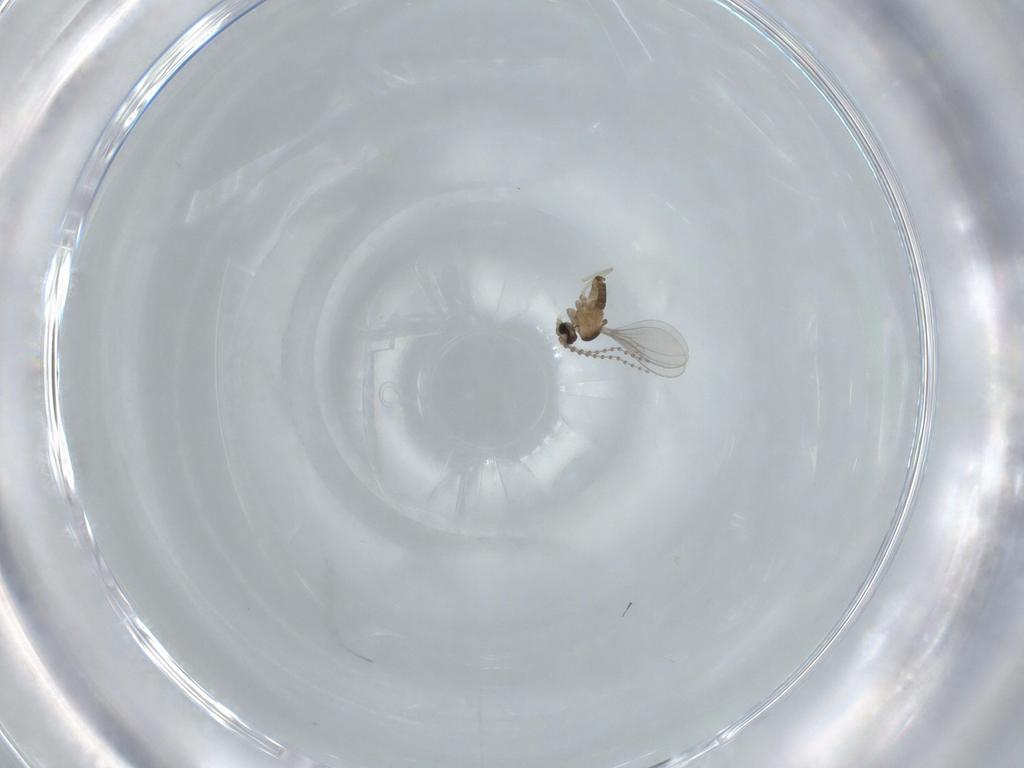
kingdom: Animalia
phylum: Arthropoda
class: Insecta
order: Diptera
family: Cecidomyiidae
